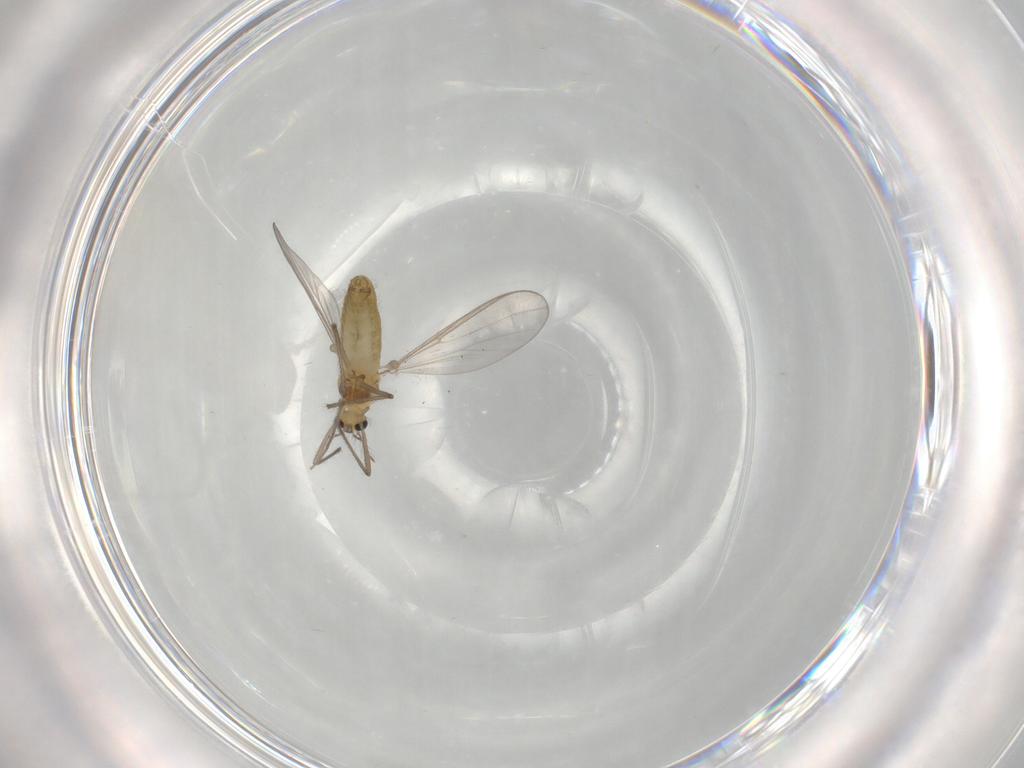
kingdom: Animalia
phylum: Arthropoda
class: Insecta
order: Diptera
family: Chironomidae
